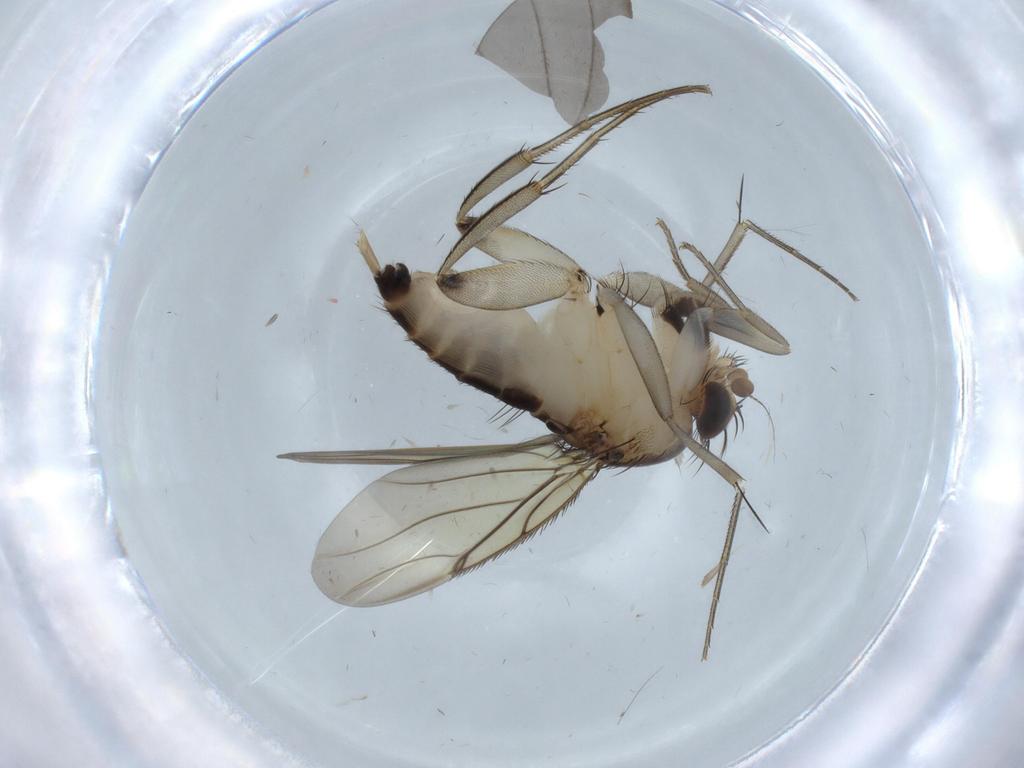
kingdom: Animalia
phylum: Arthropoda
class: Insecta
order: Diptera
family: Phoridae
